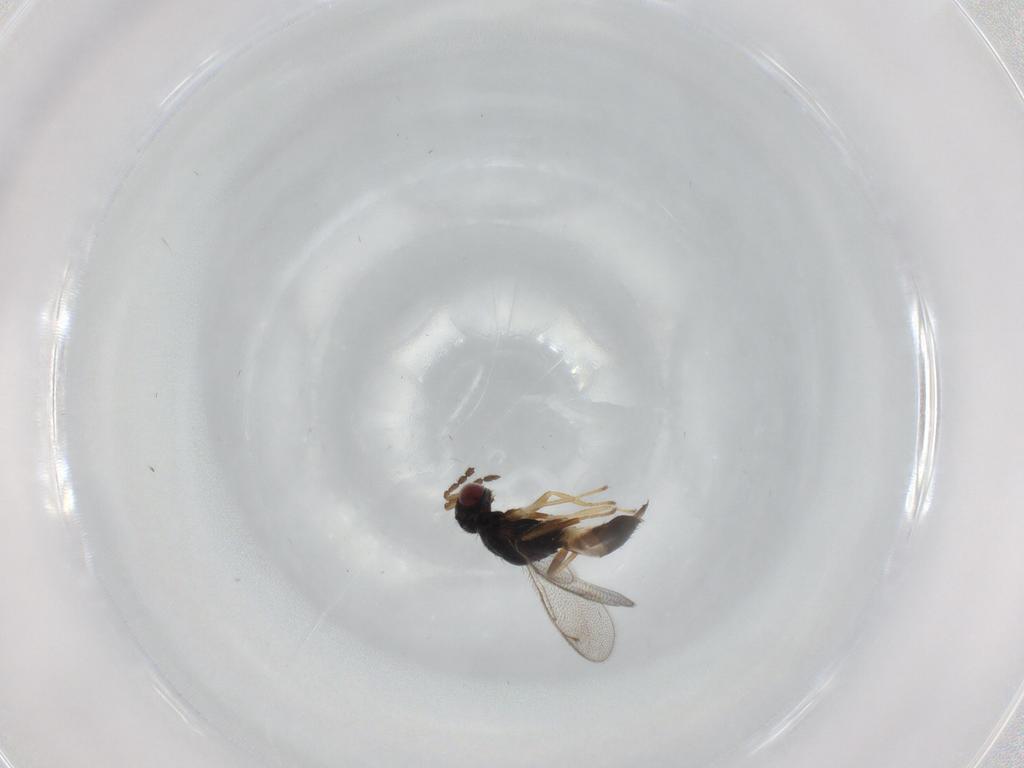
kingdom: Animalia
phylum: Arthropoda
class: Insecta
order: Hymenoptera
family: Eulophidae
